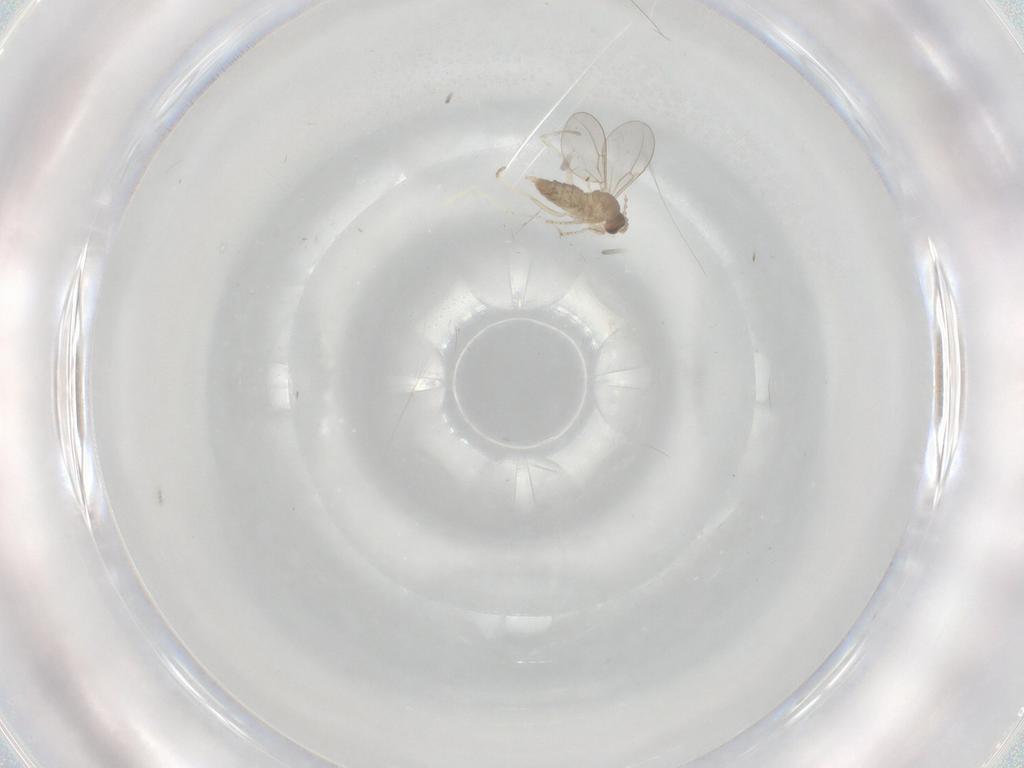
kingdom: Animalia
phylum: Arthropoda
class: Insecta
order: Diptera
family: Cecidomyiidae
